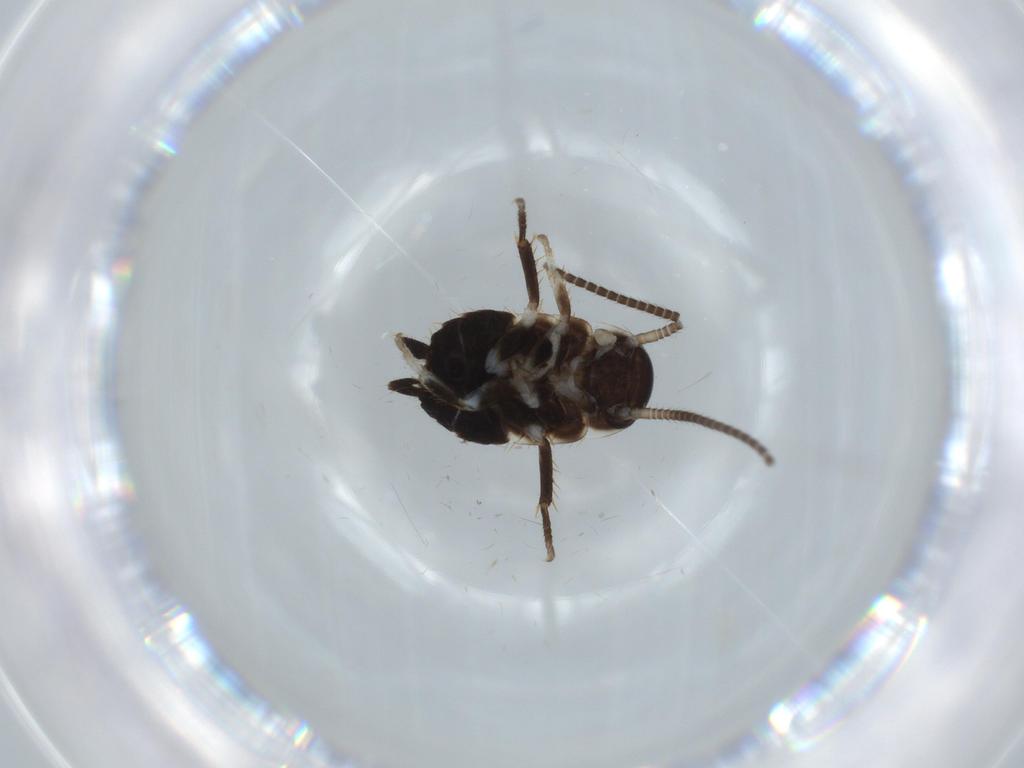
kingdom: Animalia
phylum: Arthropoda
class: Insecta
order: Blattodea
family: Ectobiidae
